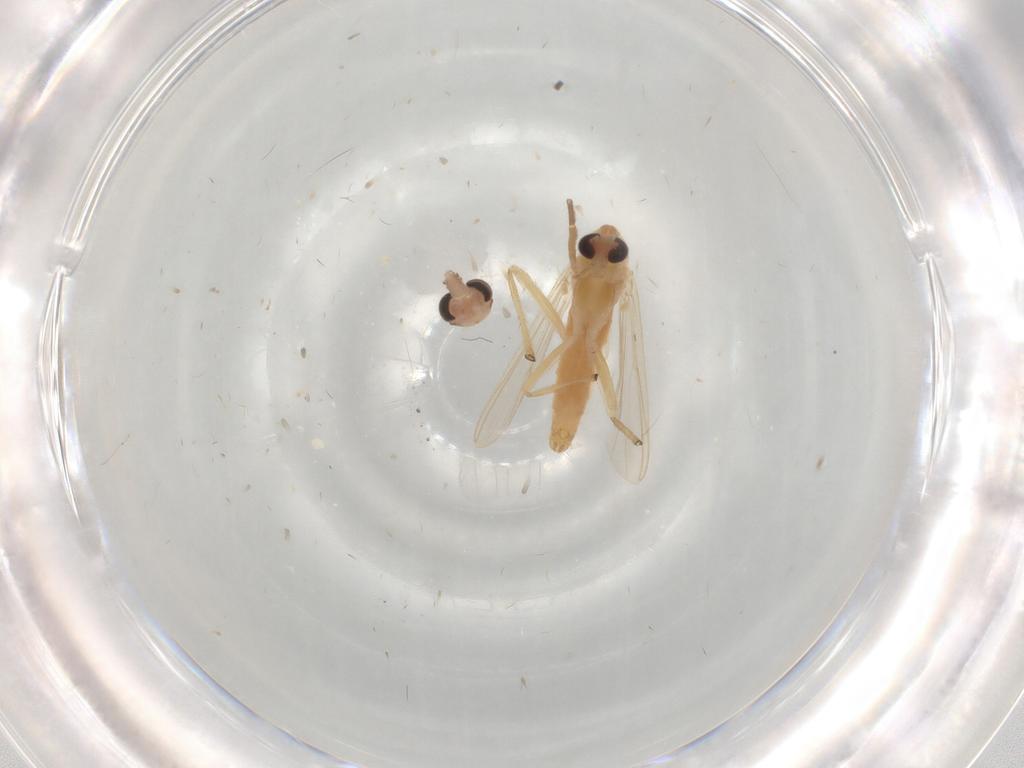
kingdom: Animalia
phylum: Arthropoda
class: Insecta
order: Diptera
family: Chironomidae
